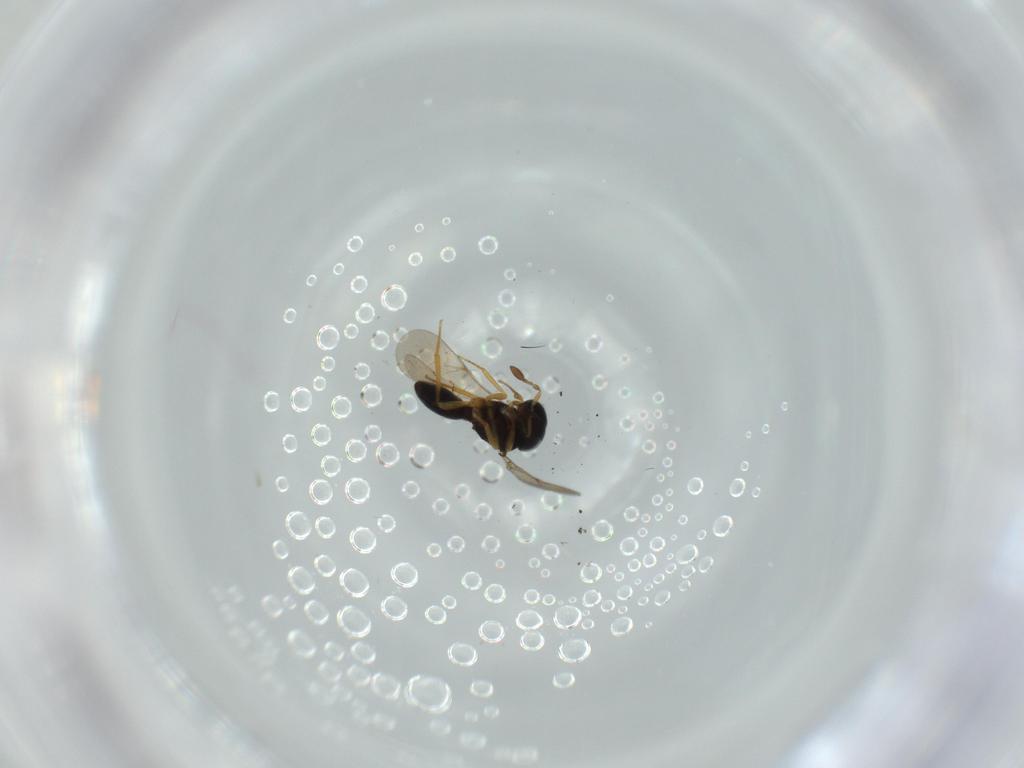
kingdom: Animalia
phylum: Arthropoda
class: Insecta
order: Hymenoptera
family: Scelionidae
